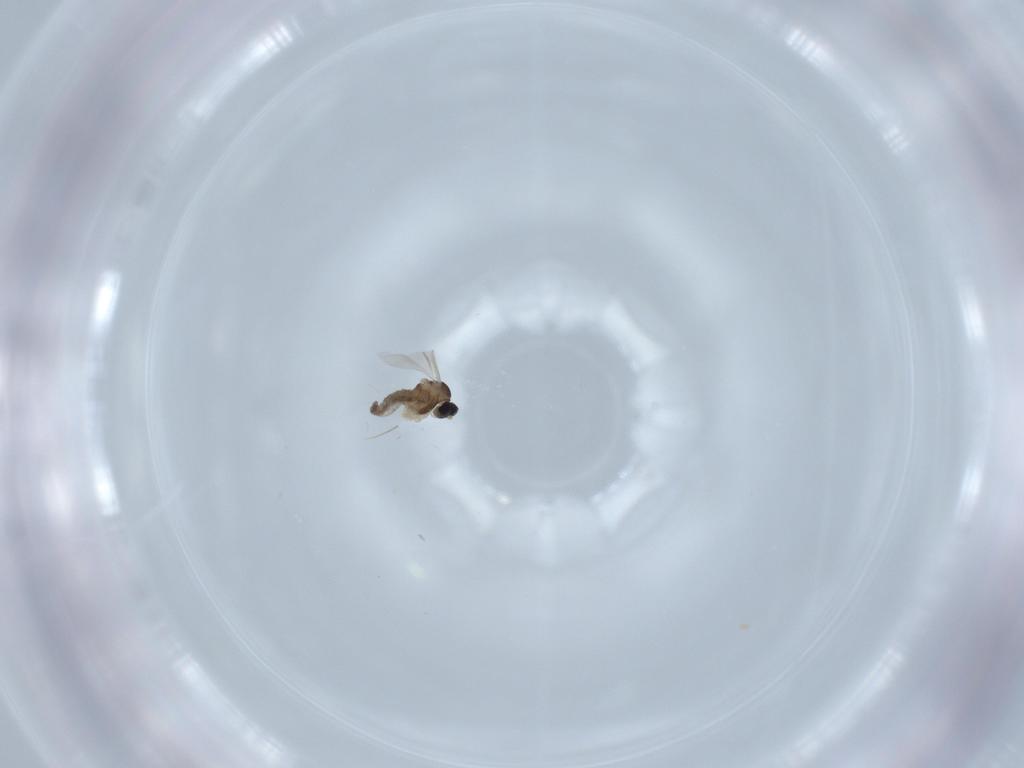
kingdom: Animalia
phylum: Arthropoda
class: Insecta
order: Diptera
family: Cecidomyiidae
